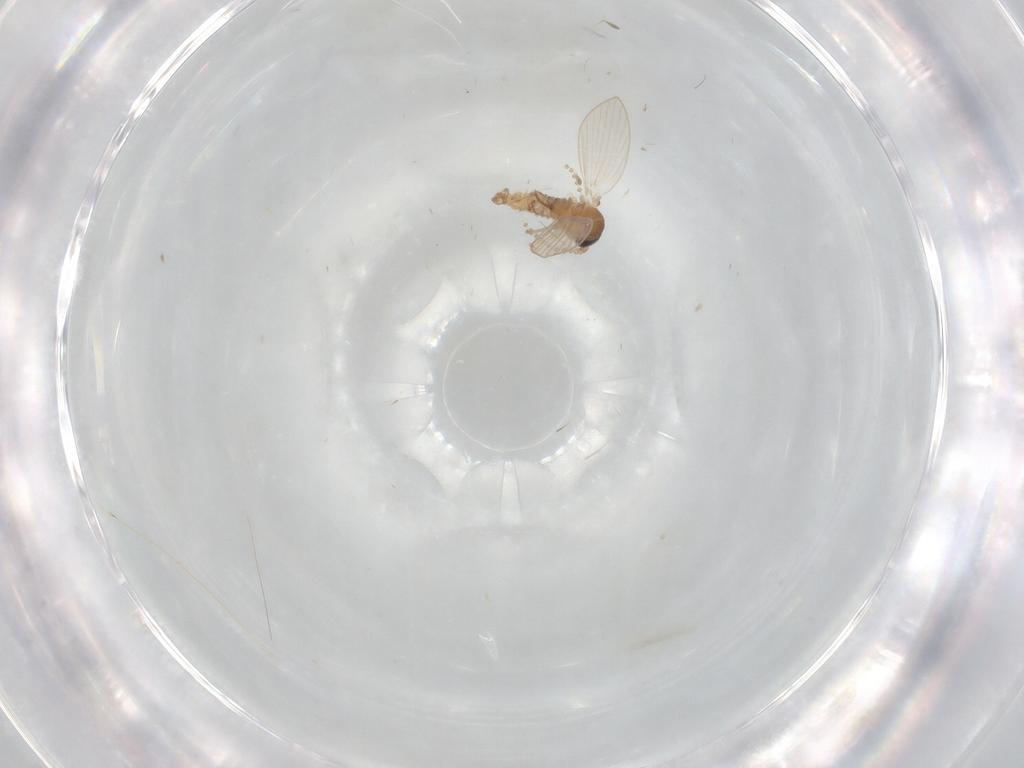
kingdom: Animalia
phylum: Arthropoda
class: Insecta
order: Diptera
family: Psychodidae
